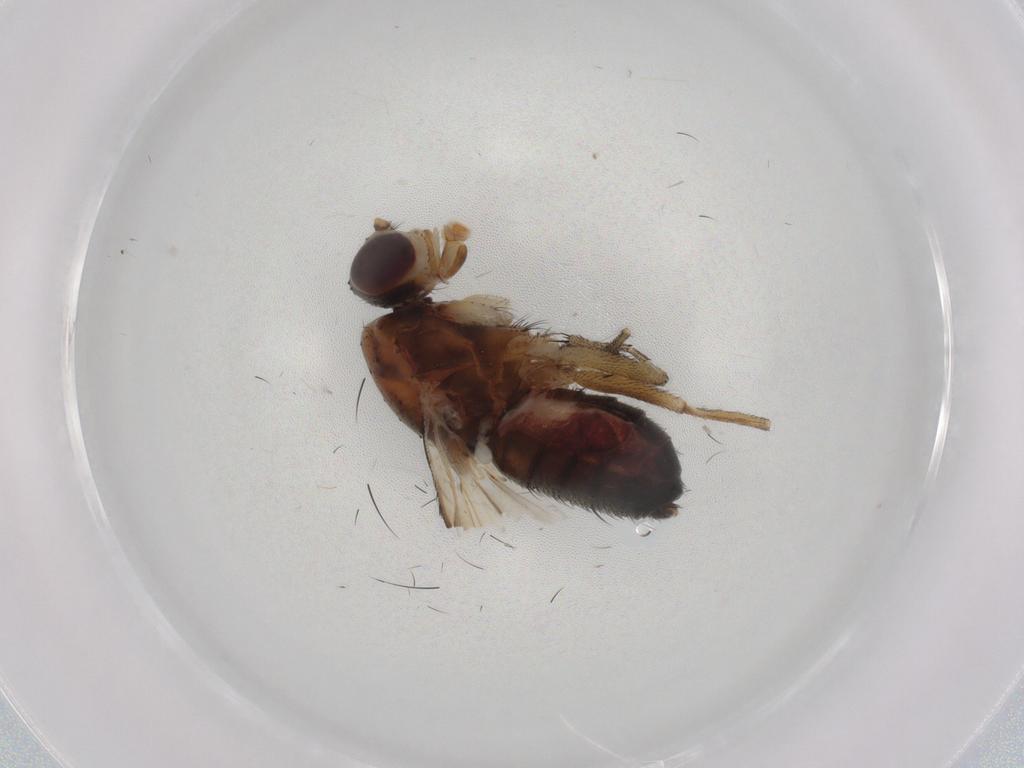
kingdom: Animalia
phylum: Arthropoda
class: Insecta
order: Diptera
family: Heleomyzidae
